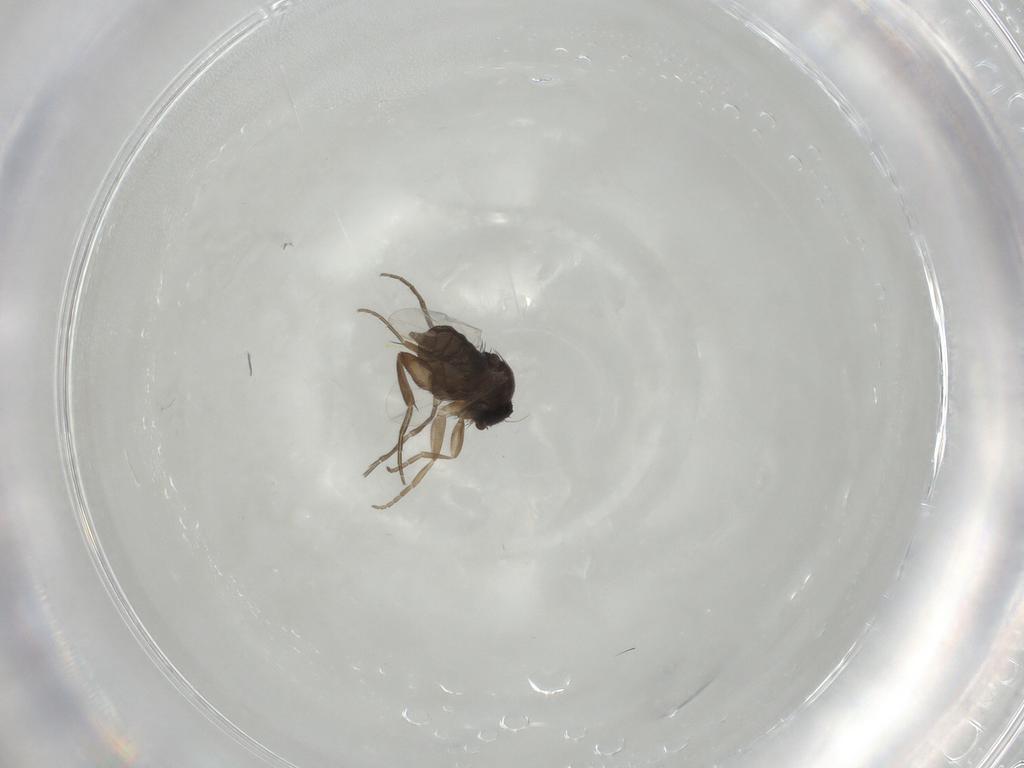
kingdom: Animalia
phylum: Arthropoda
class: Insecta
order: Diptera
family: Phoridae
